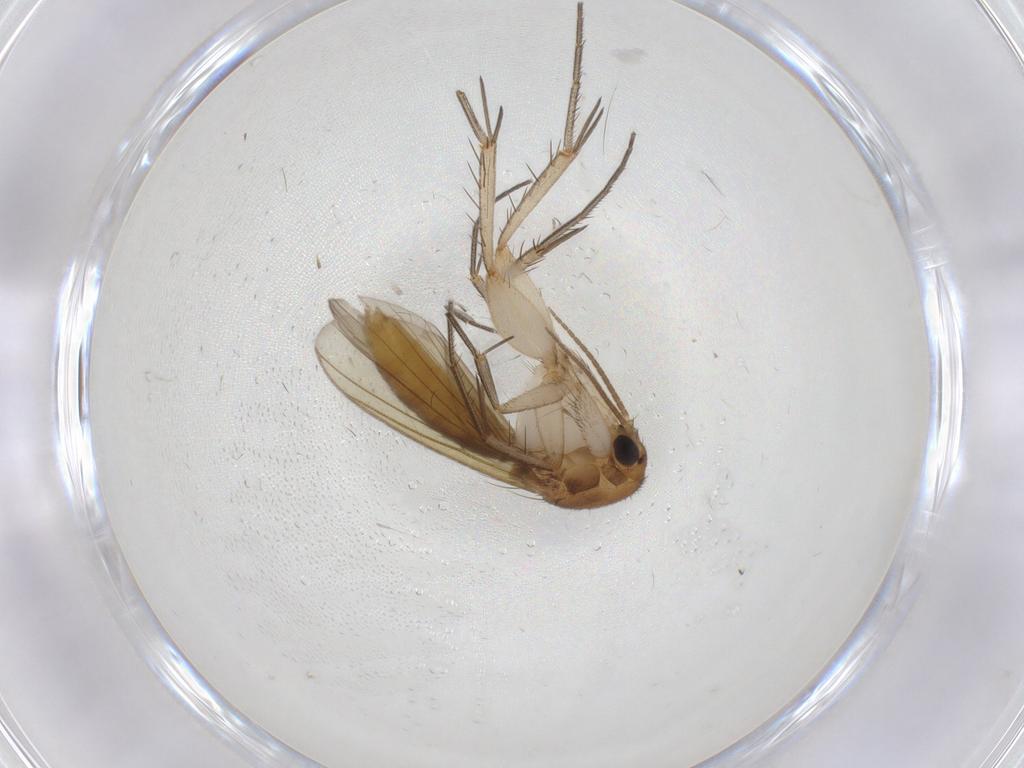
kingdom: Animalia
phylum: Arthropoda
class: Insecta
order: Diptera
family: Mycetophilidae
